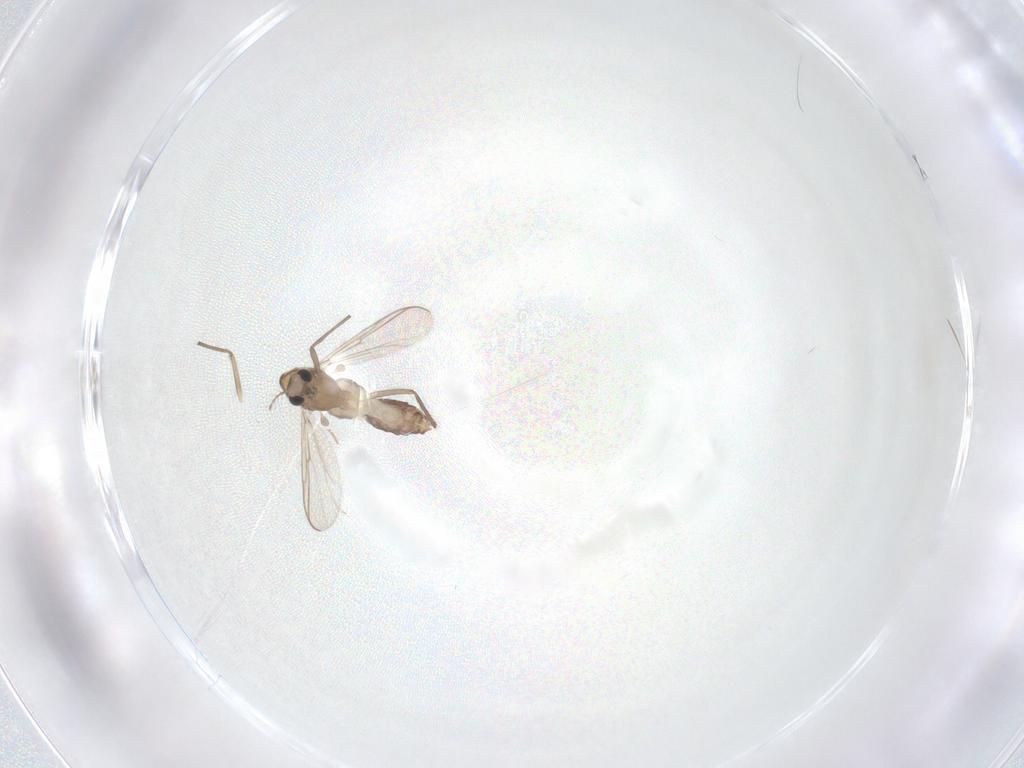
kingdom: Animalia
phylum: Arthropoda
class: Insecta
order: Diptera
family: Chironomidae
